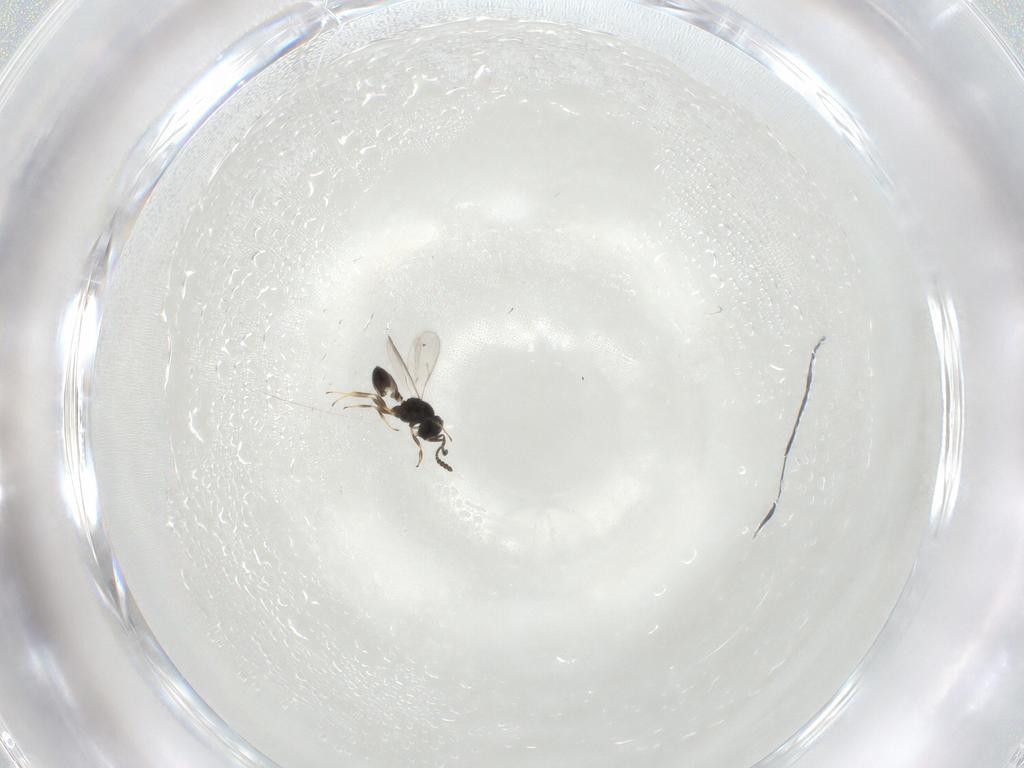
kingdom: Animalia
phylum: Arthropoda
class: Insecta
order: Hymenoptera
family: Scelionidae
